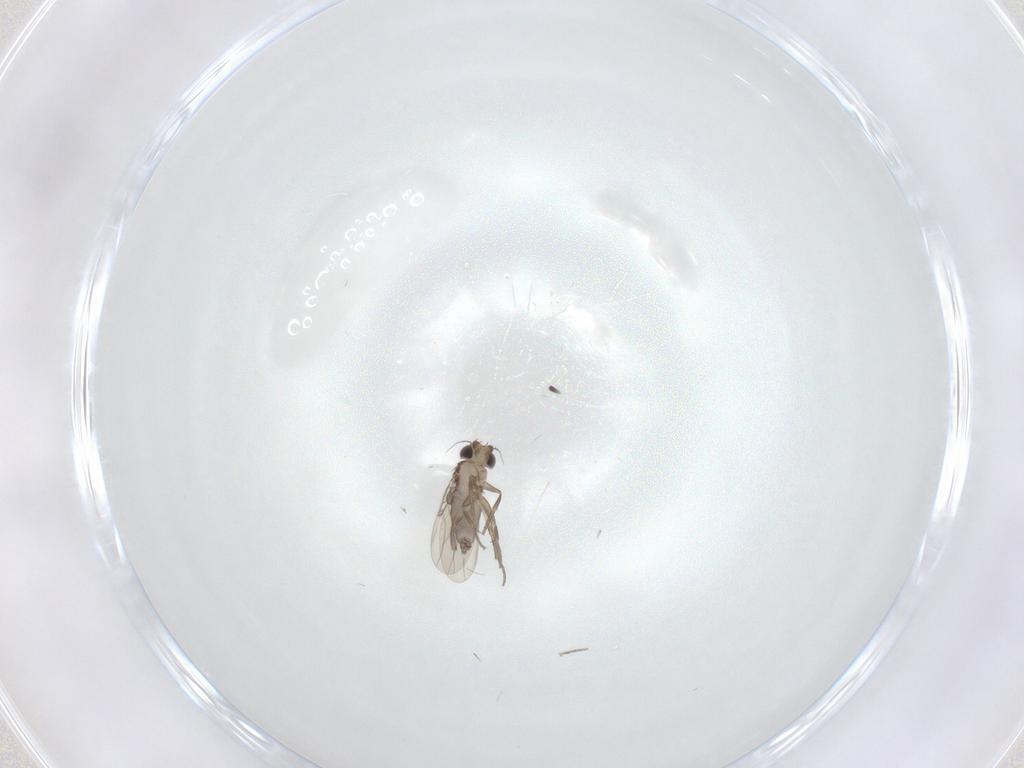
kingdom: Animalia
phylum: Arthropoda
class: Insecta
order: Diptera
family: Phoridae
